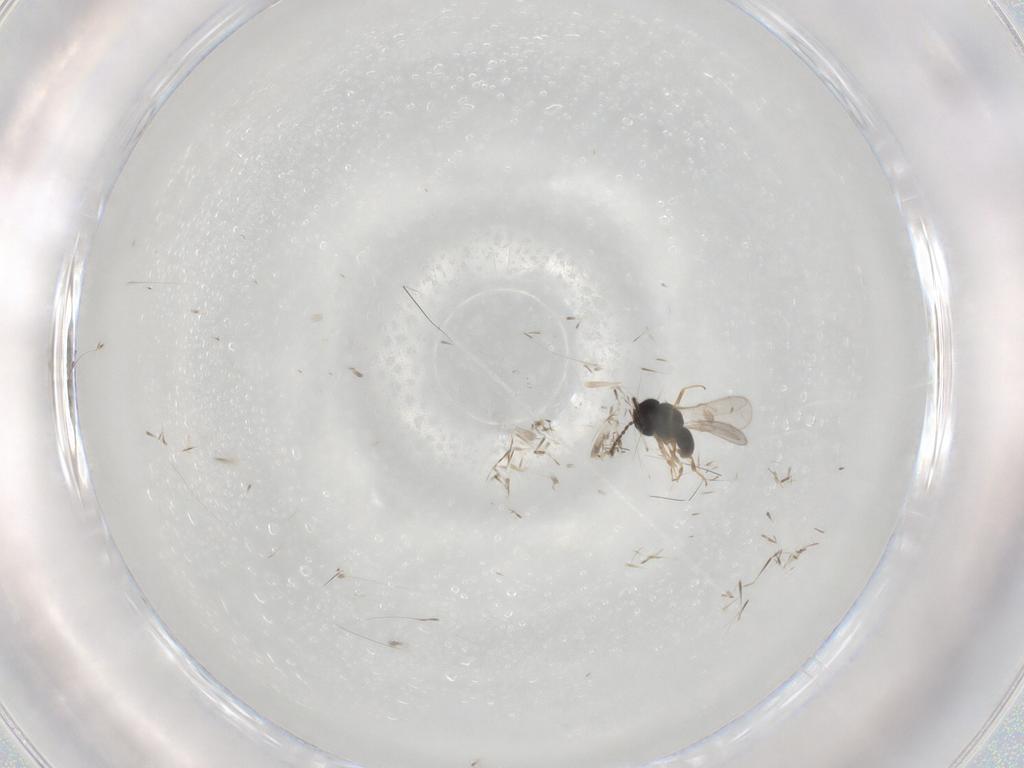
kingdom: Animalia
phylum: Arthropoda
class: Insecta
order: Hymenoptera
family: Scelionidae
